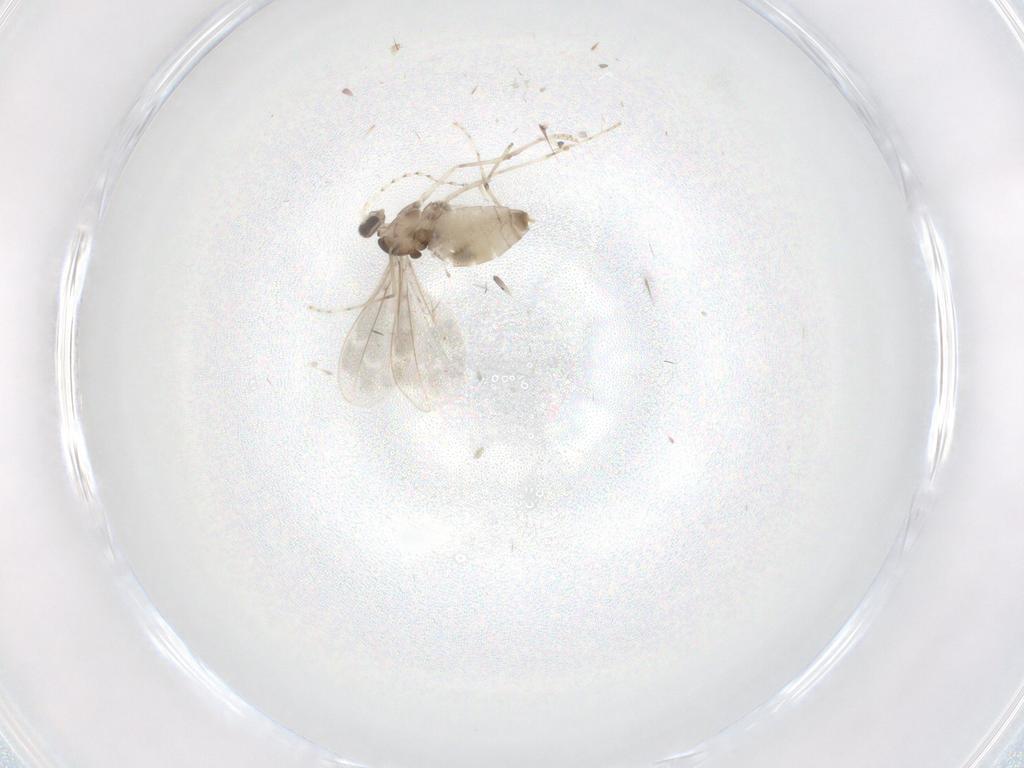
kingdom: Animalia
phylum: Arthropoda
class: Insecta
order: Diptera
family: Cecidomyiidae
